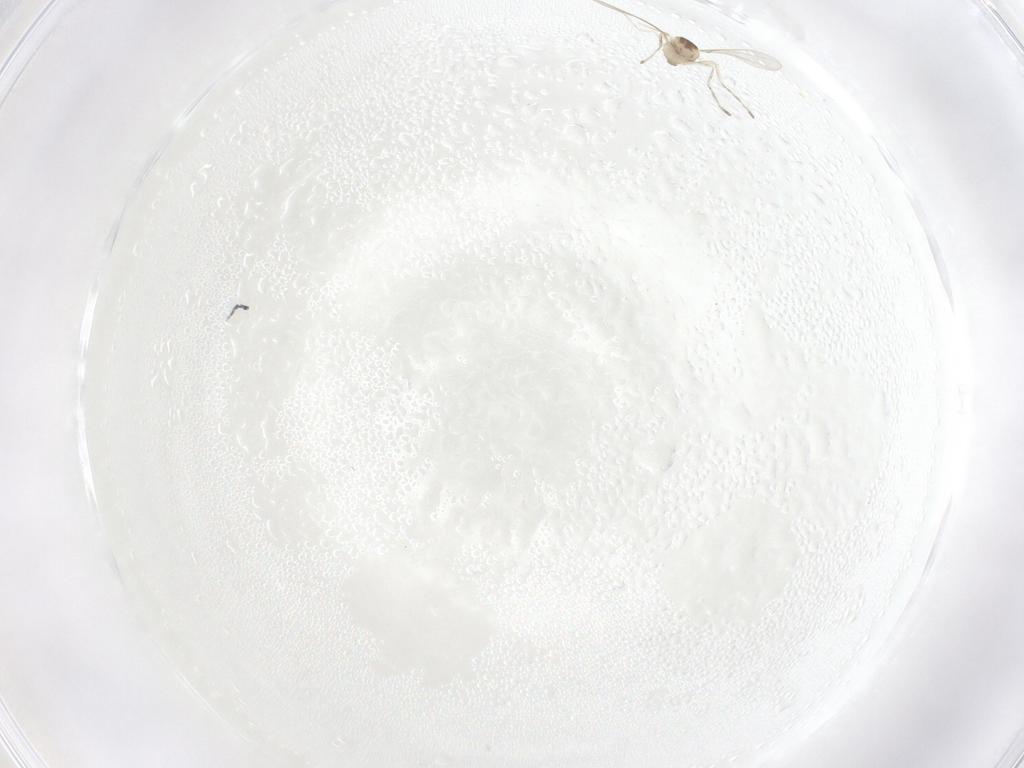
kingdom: Animalia
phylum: Arthropoda
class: Insecta
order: Diptera
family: Cecidomyiidae
